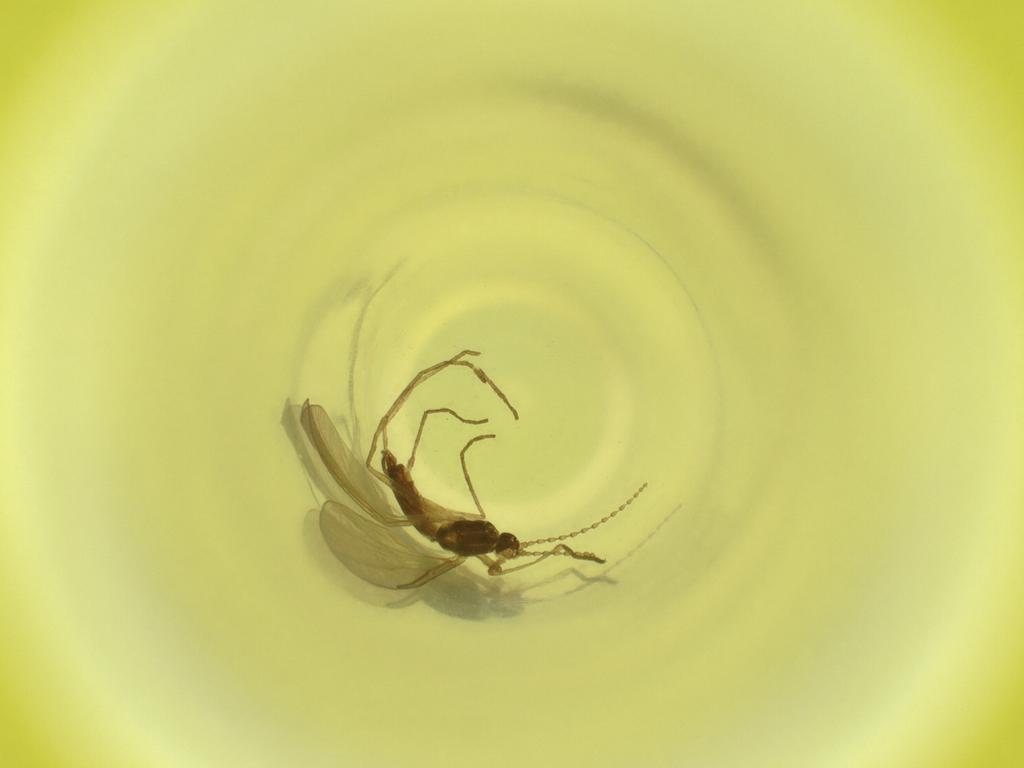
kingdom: Animalia
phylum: Arthropoda
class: Insecta
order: Diptera
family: Cecidomyiidae
